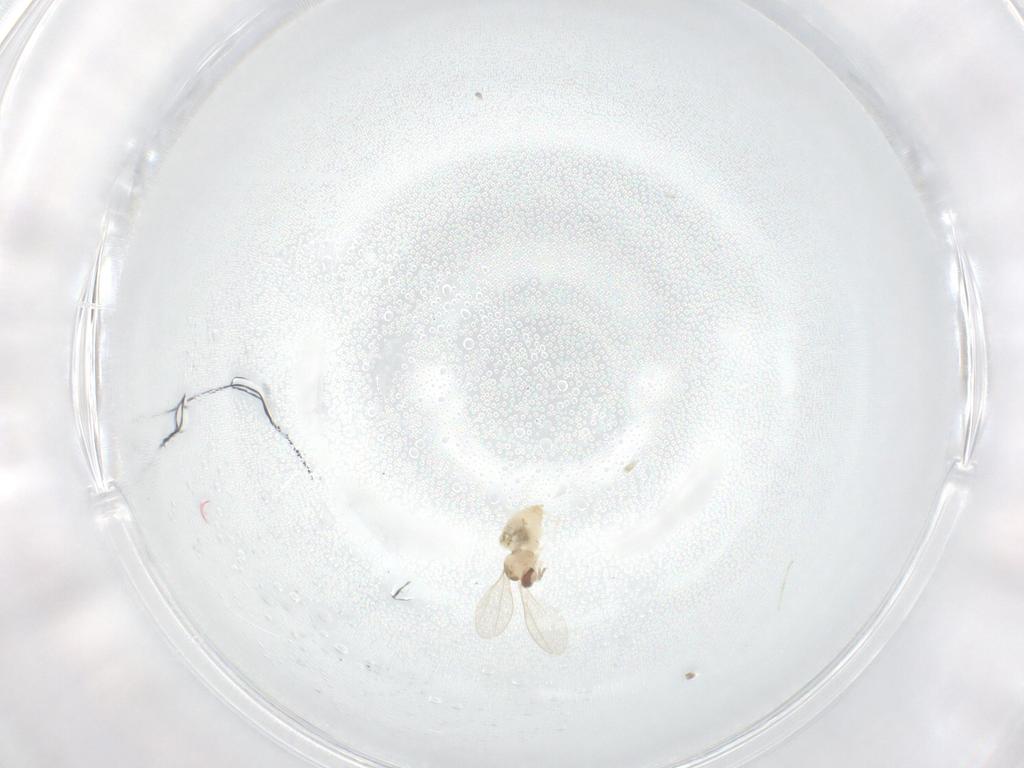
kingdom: Animalia
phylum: Arthropoda
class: Insecta
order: Diptera
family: Cecidomyiidae
